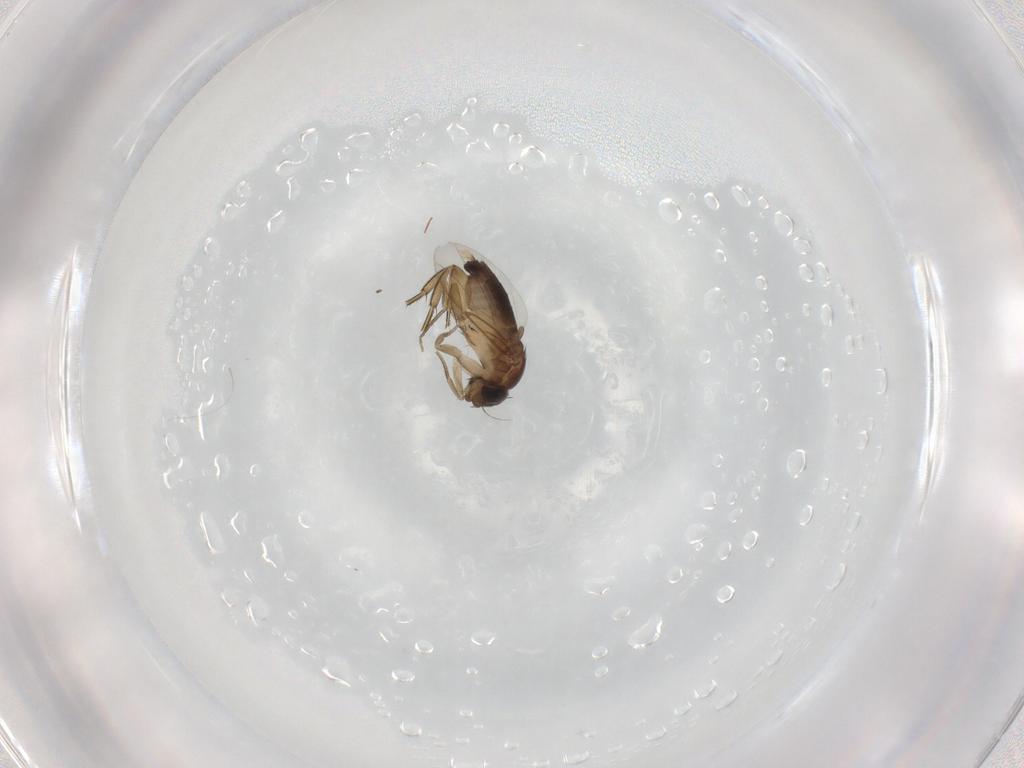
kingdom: Animalia
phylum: Arthropoda
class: Insecta
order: Diptera
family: Phoridae
